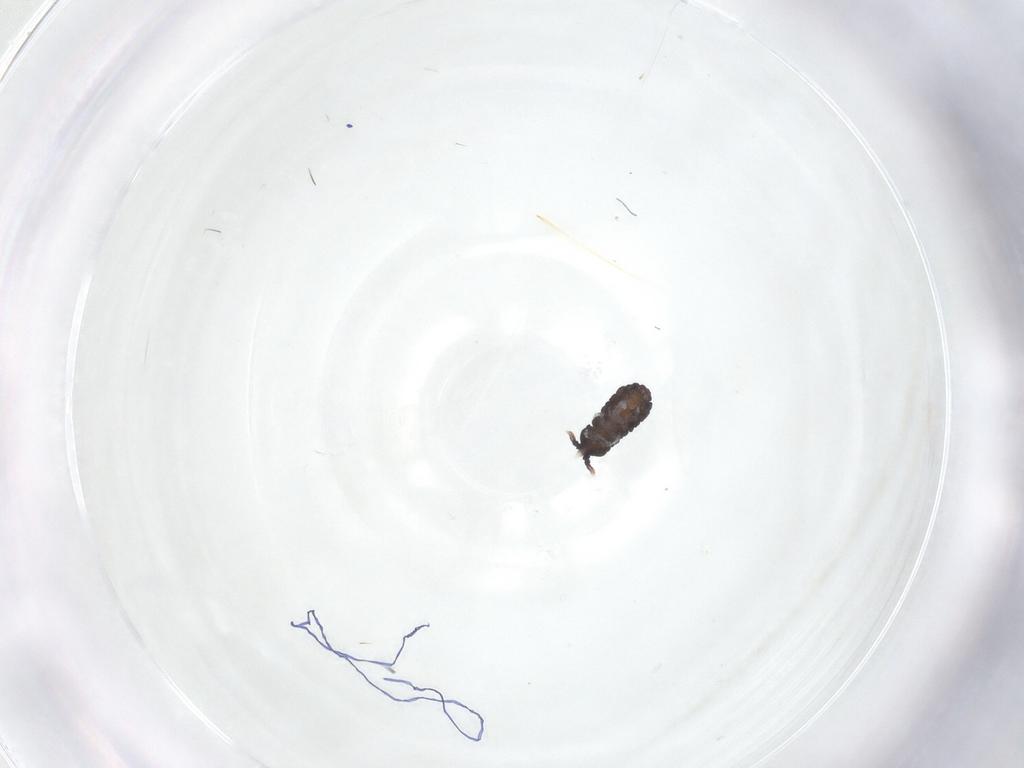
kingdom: Animalia
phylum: Arthropoda
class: Collembola
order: Poduromorpha
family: Neanuridae
